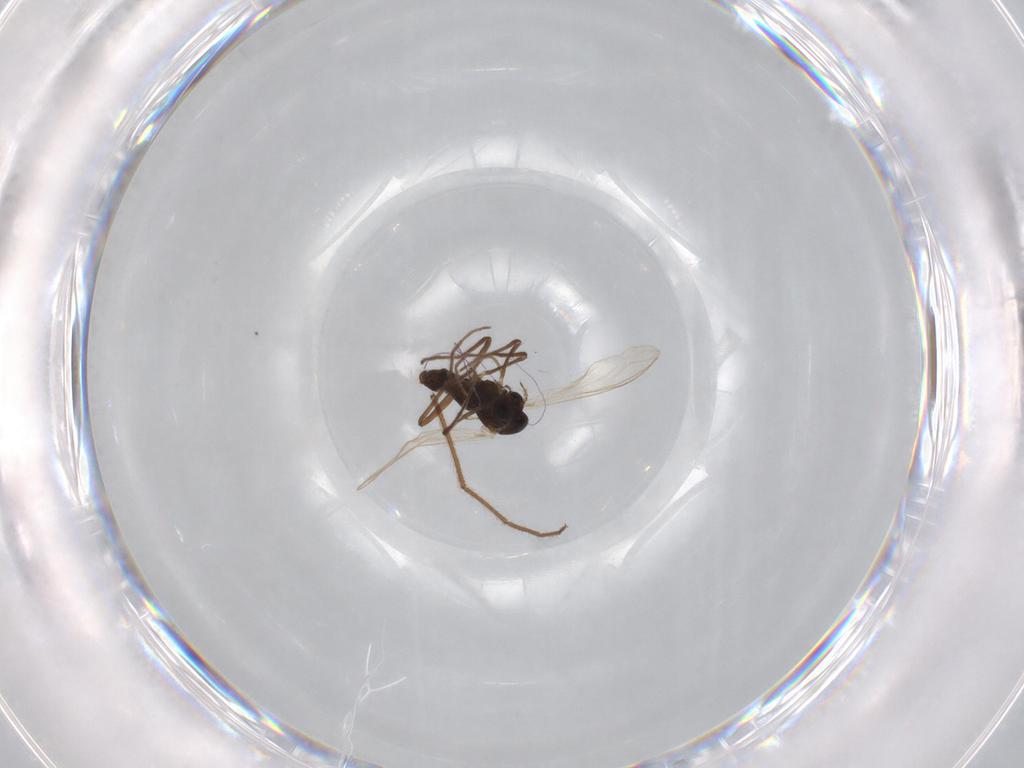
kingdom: Animalia
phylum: Arthropoda
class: Insecta
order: Diptera
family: Chironomidae
